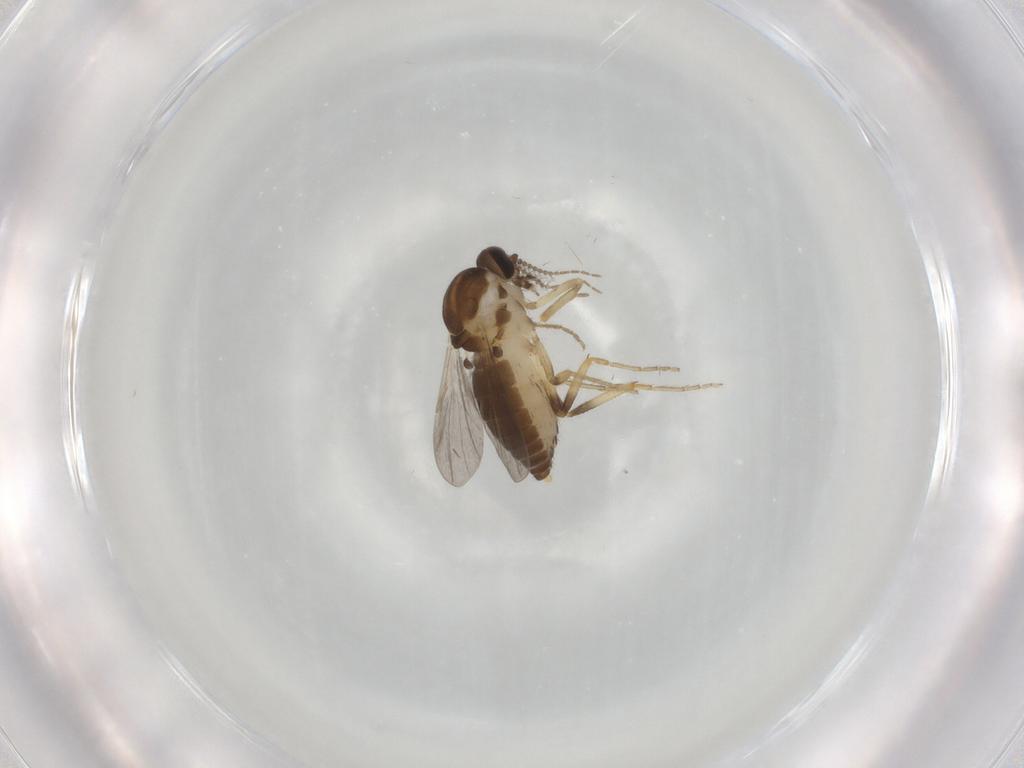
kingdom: Animalia
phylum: Arthropoda
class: Insecta
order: Diptera
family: Ceratopogonidae
